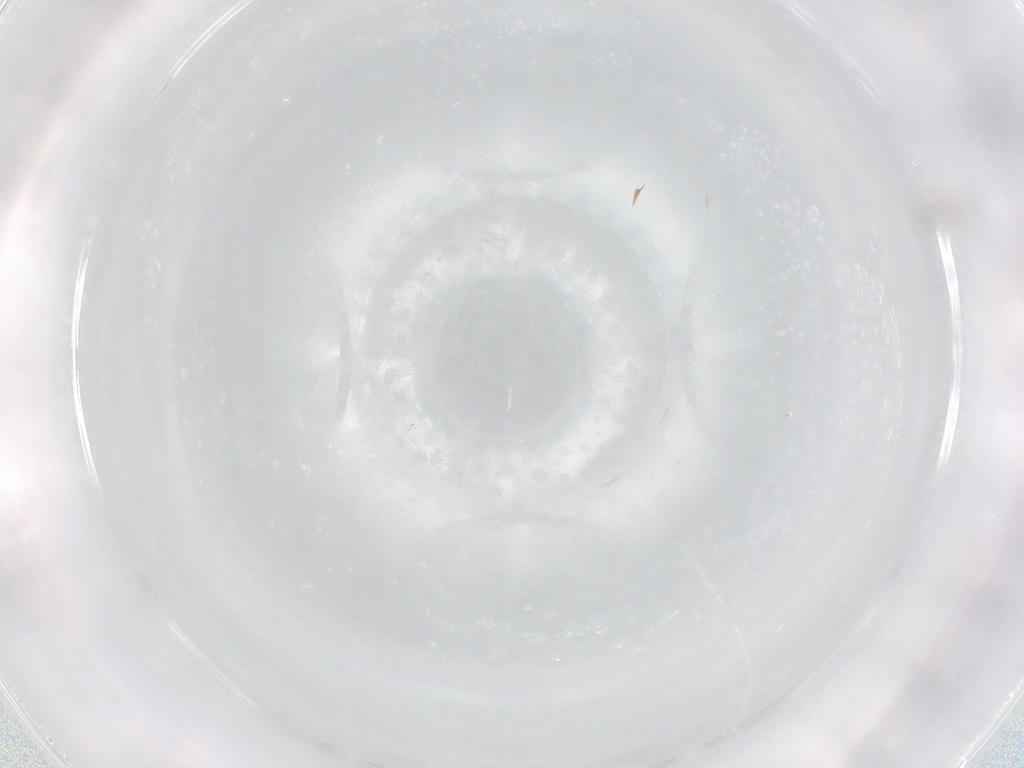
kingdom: Animalia
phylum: Arthropoda
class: Insecta
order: Hymenoptera
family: Scelionidae
